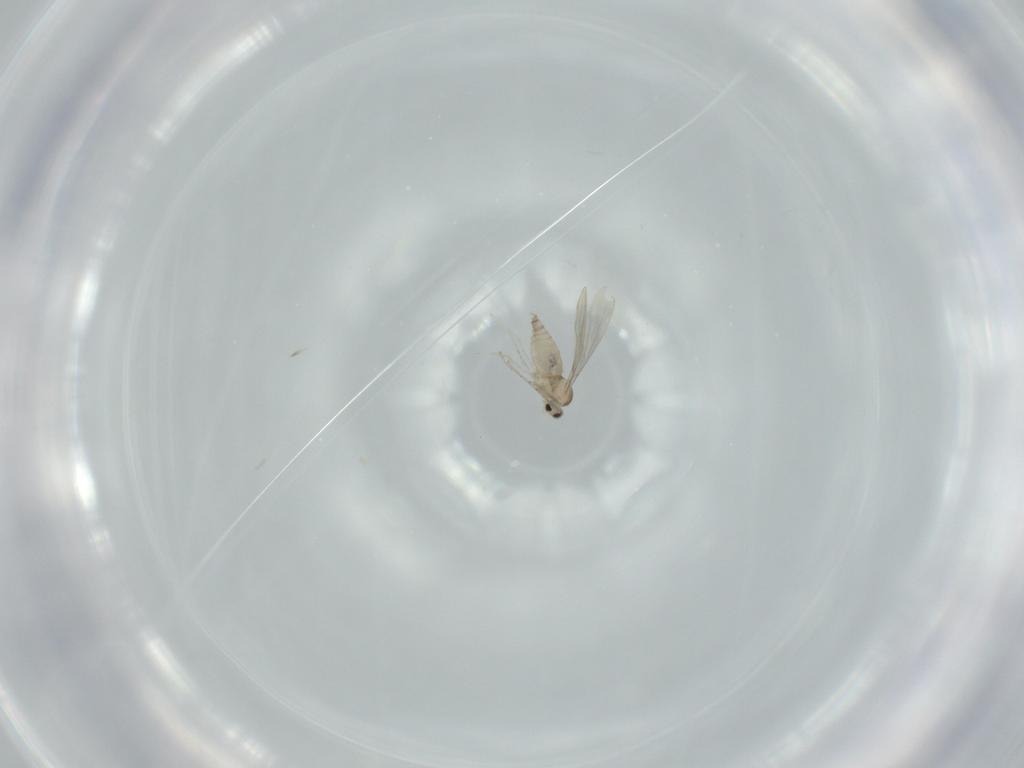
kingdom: Animalia
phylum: Arthropoda
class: Insecta
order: Diptera
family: Cecidomyiidae
